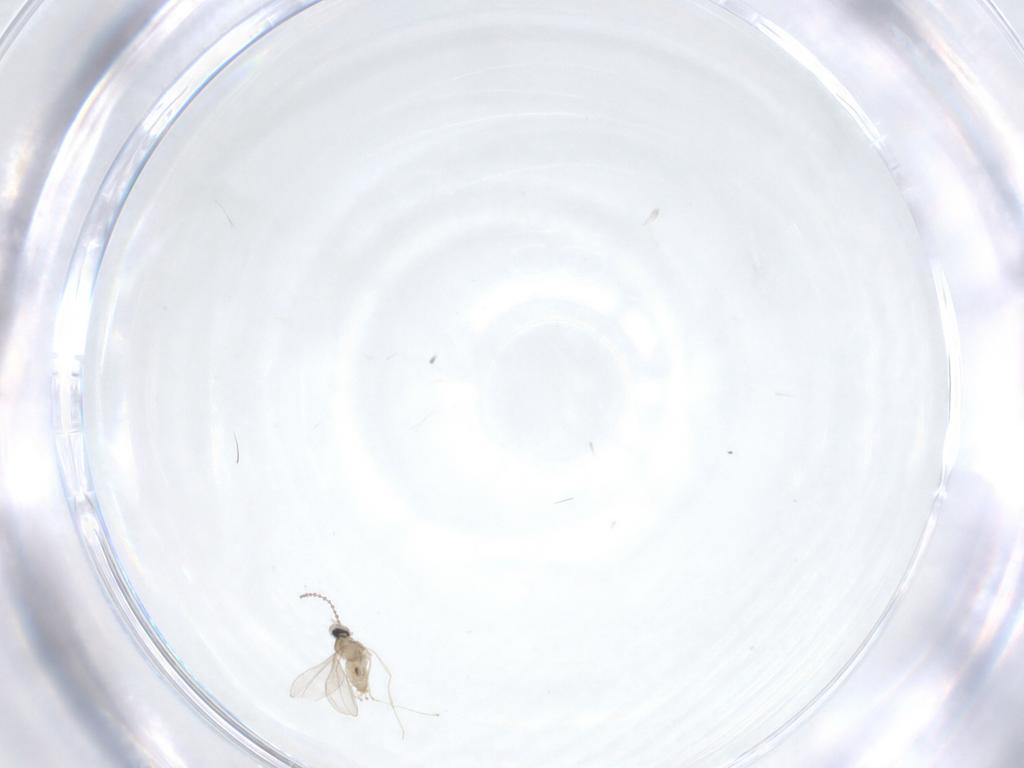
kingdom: Animalia
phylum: Arthropoda
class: Insecta
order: Diptera
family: Cecidomyiidae
